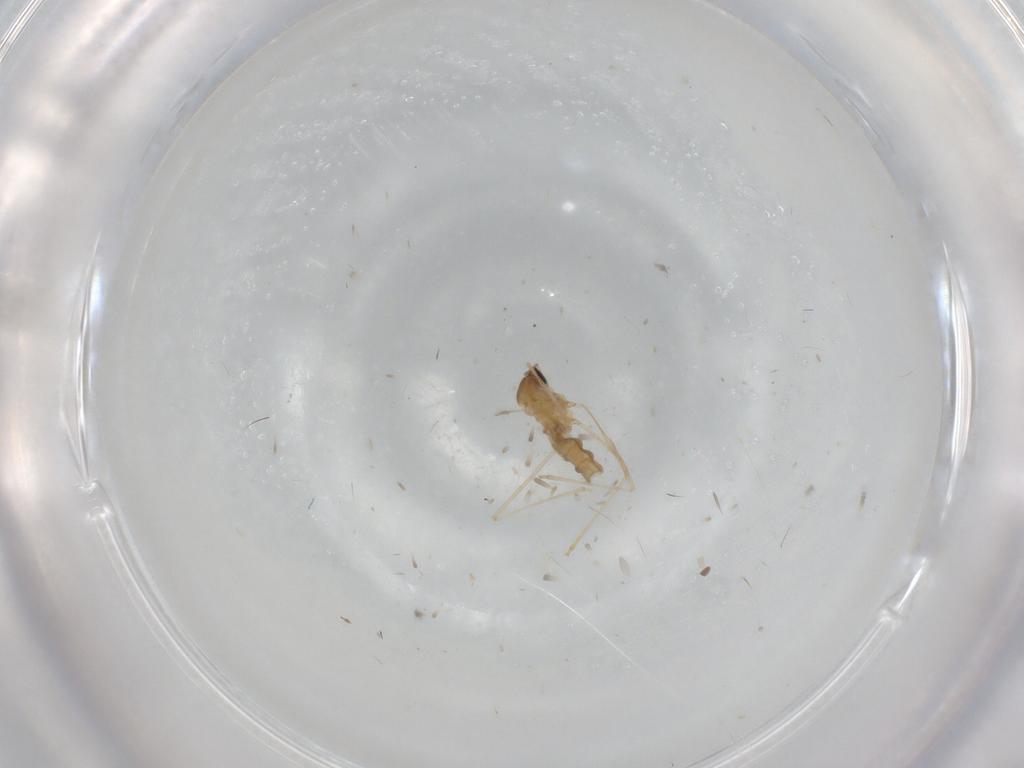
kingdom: Animalia
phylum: Arthropoda
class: Insecta
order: Diptera
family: Cecidomyiidae
